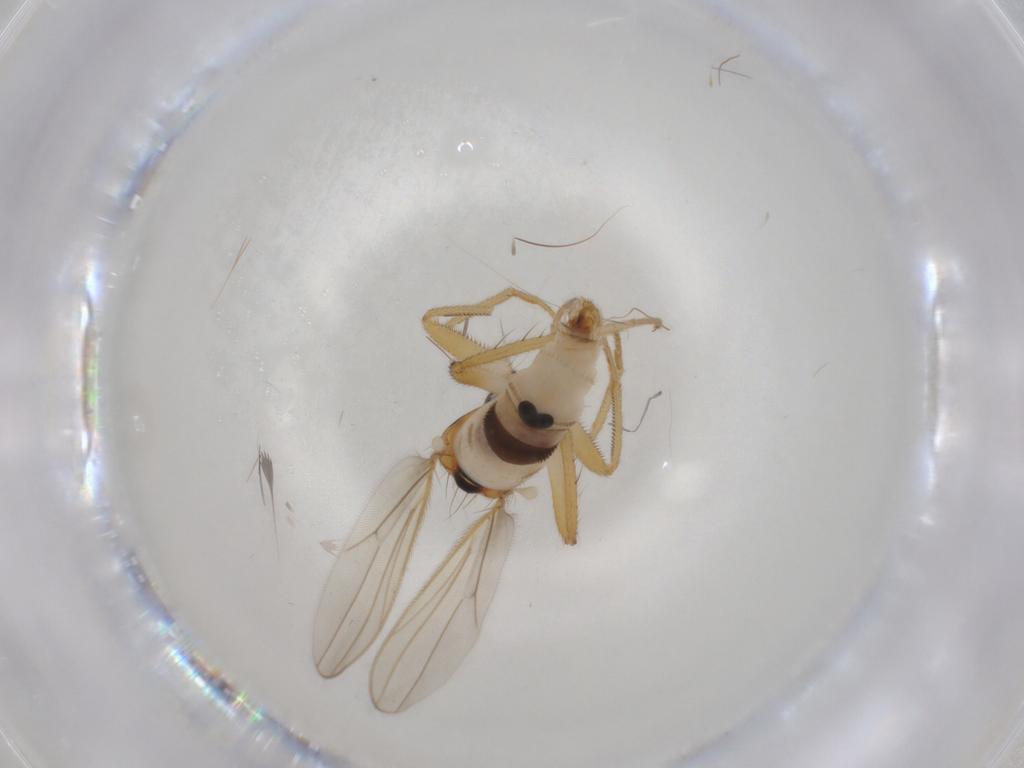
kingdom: Animalia
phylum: Arthropoda
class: Insecta
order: Diptera
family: Hybotidae
